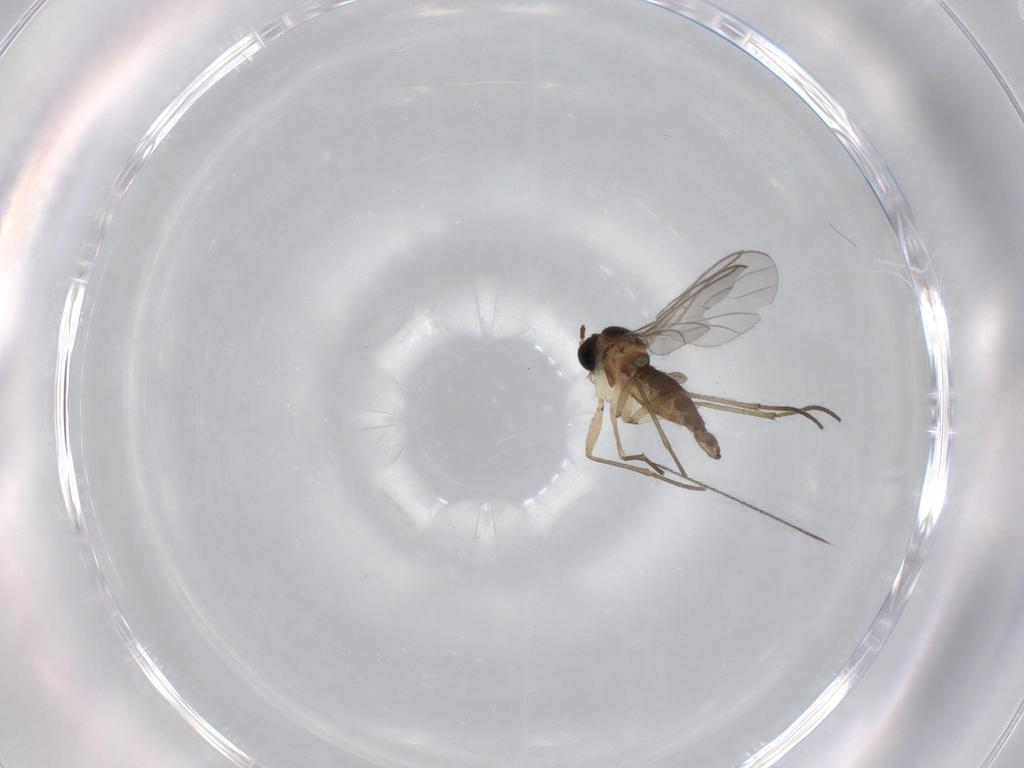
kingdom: Animalia
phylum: Arthropoda
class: Insecta
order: Diptera
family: Sciaridae
